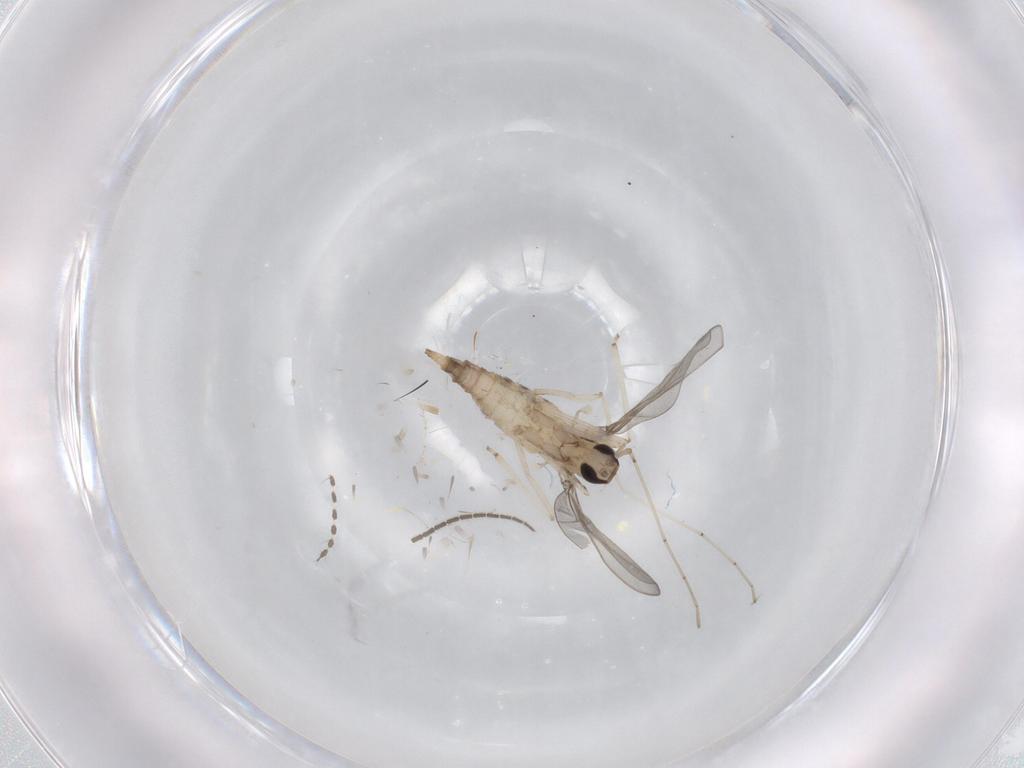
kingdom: Animalia
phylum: Arthropoda
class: Insecta
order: Diptera
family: Cecidomyiidae
